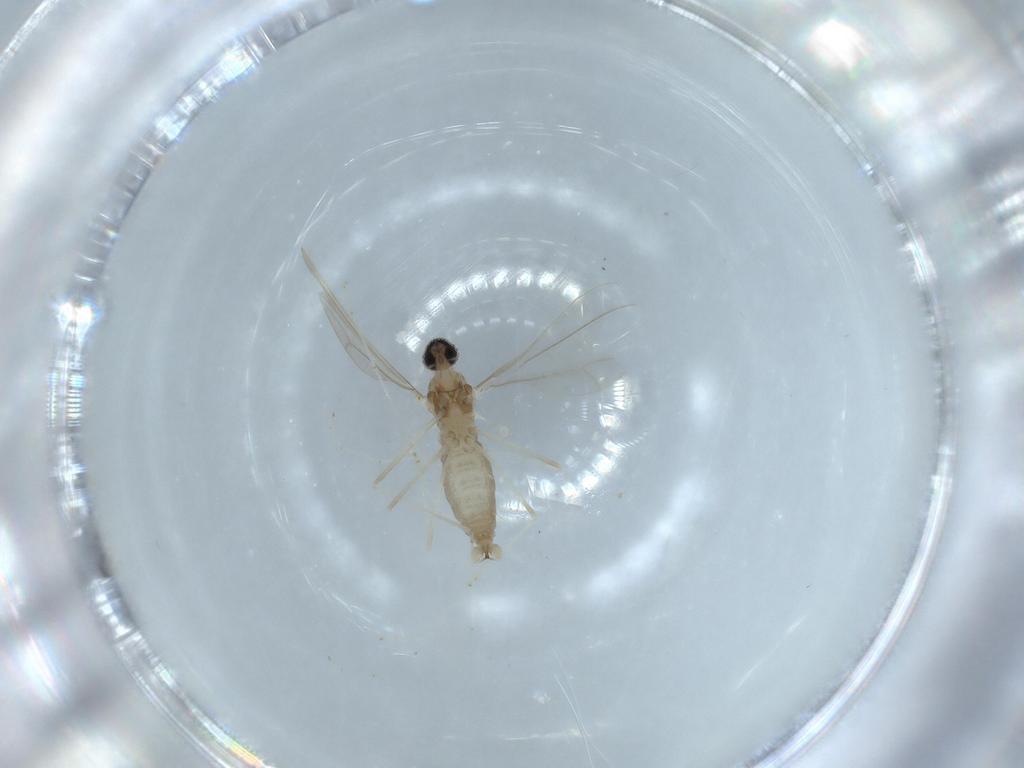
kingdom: Animalia
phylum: Arthropoda
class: Insecta
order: Diptera
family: Cecidomyiidae
